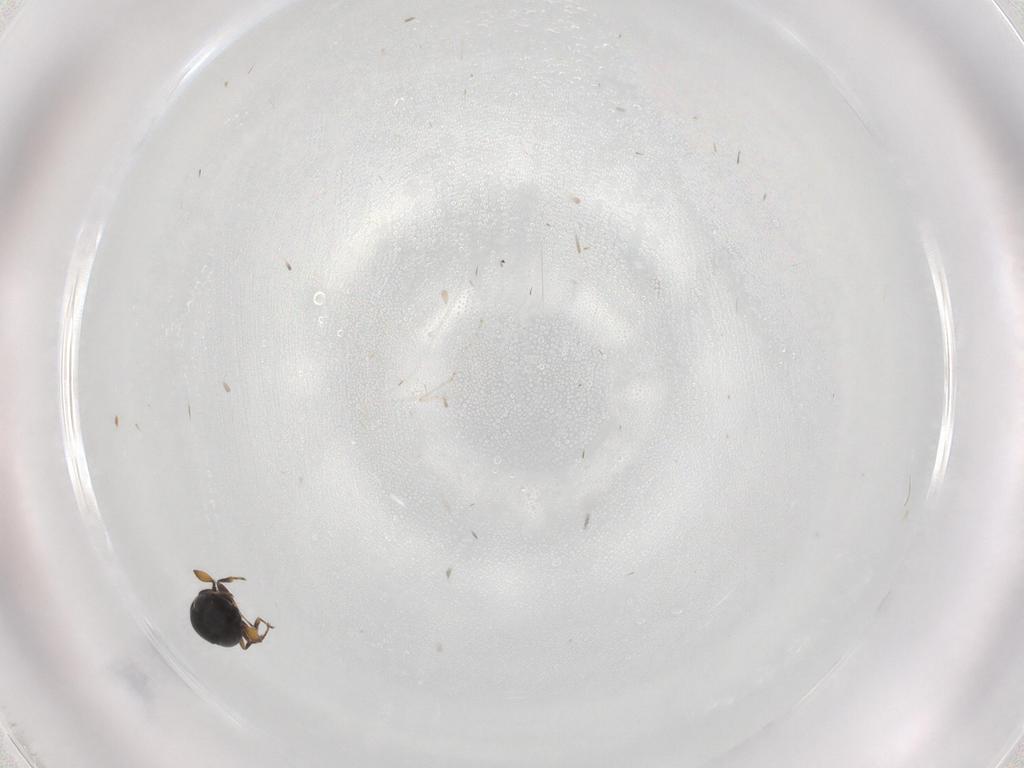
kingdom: Animalia
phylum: Arthropoda
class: Insecta
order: Hymenoptera
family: Scelionidae
